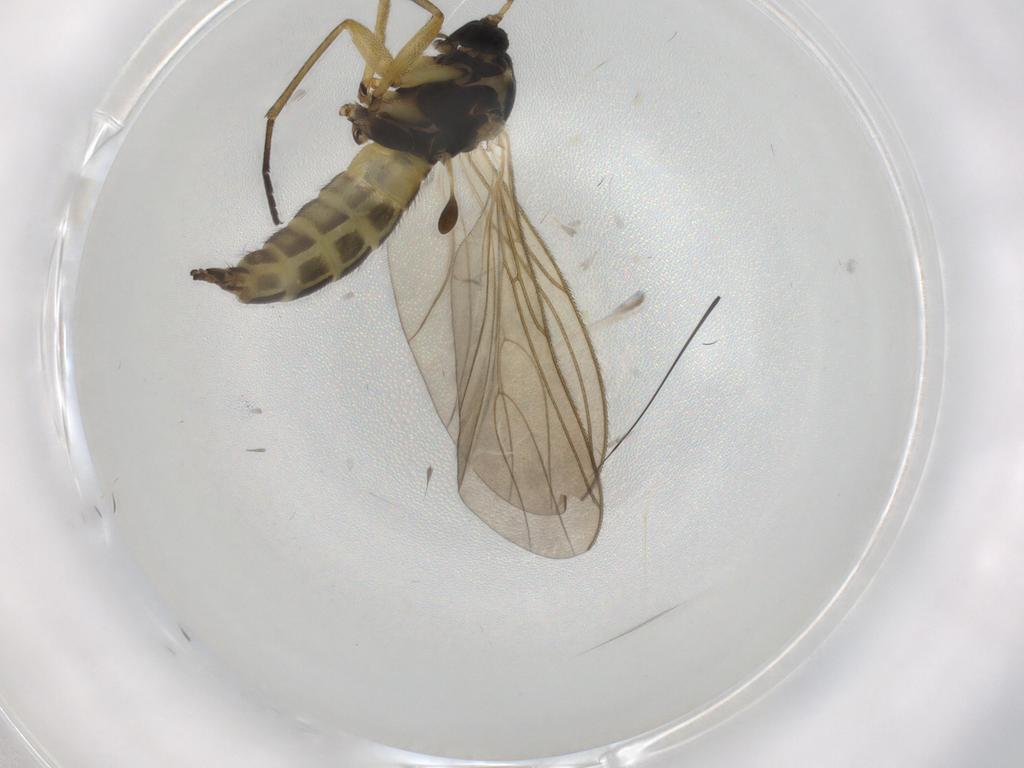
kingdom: Animalia
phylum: Arthropoda
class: Insecta
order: Diptera
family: Sciaridae
